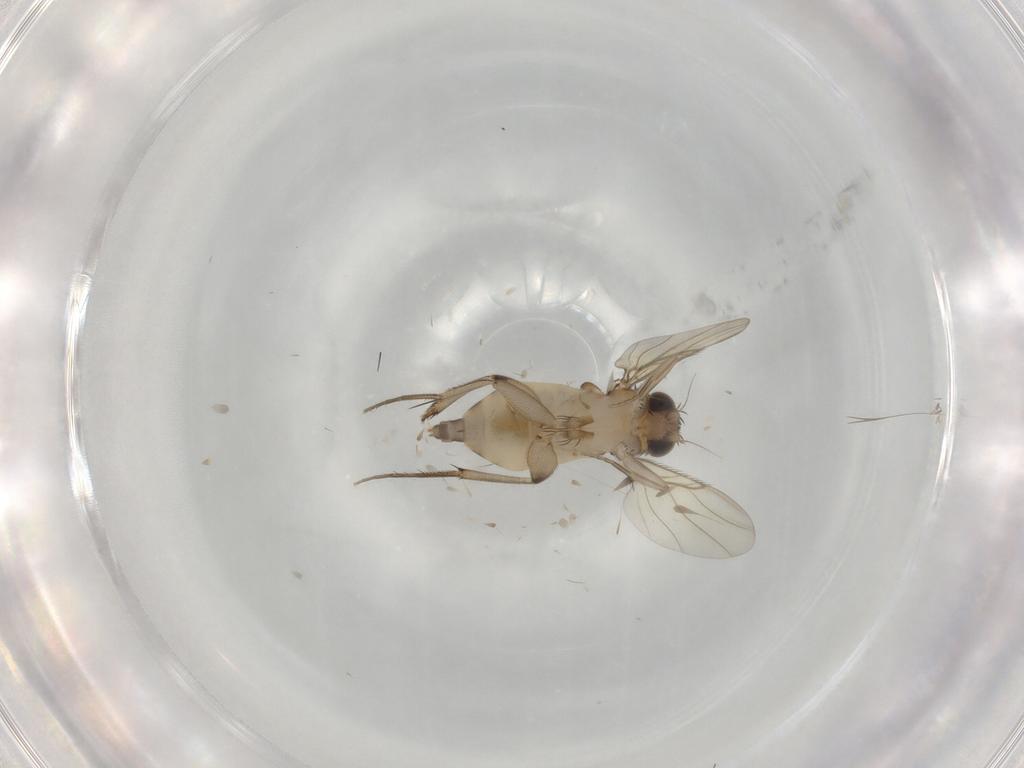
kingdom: Animalia
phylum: Arthropoda
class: Insecta
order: Diptera
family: Phoridae
